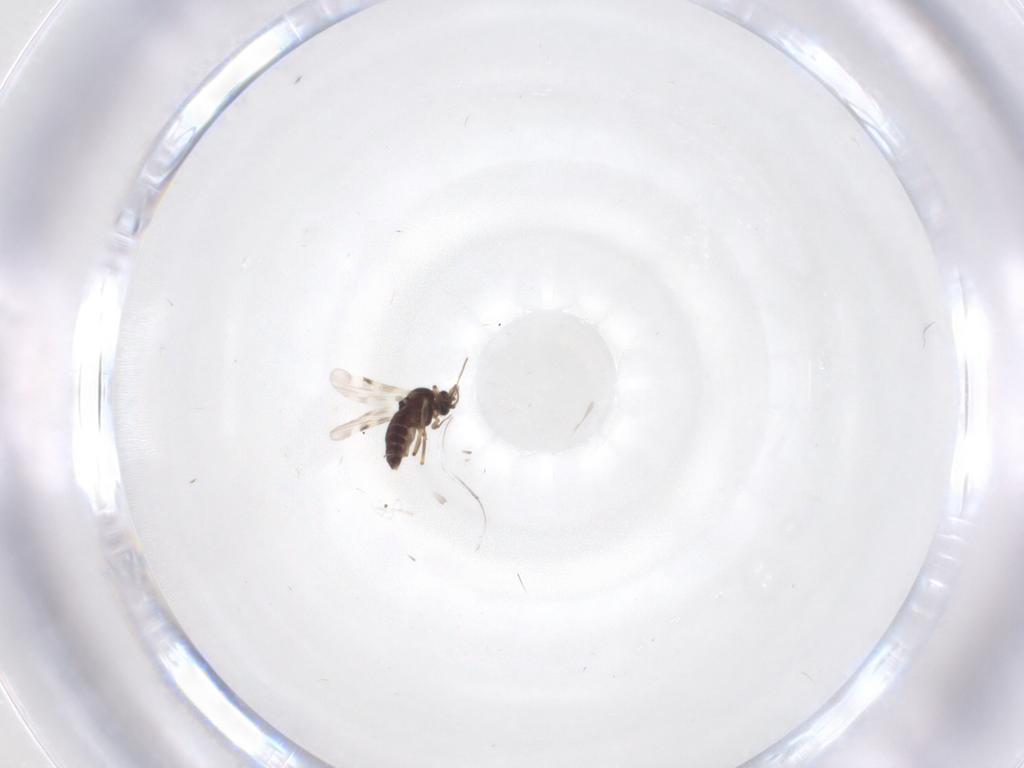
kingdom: Animalia
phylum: Arthropoda
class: Insecta
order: Diptera
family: Cecidomyiidae
